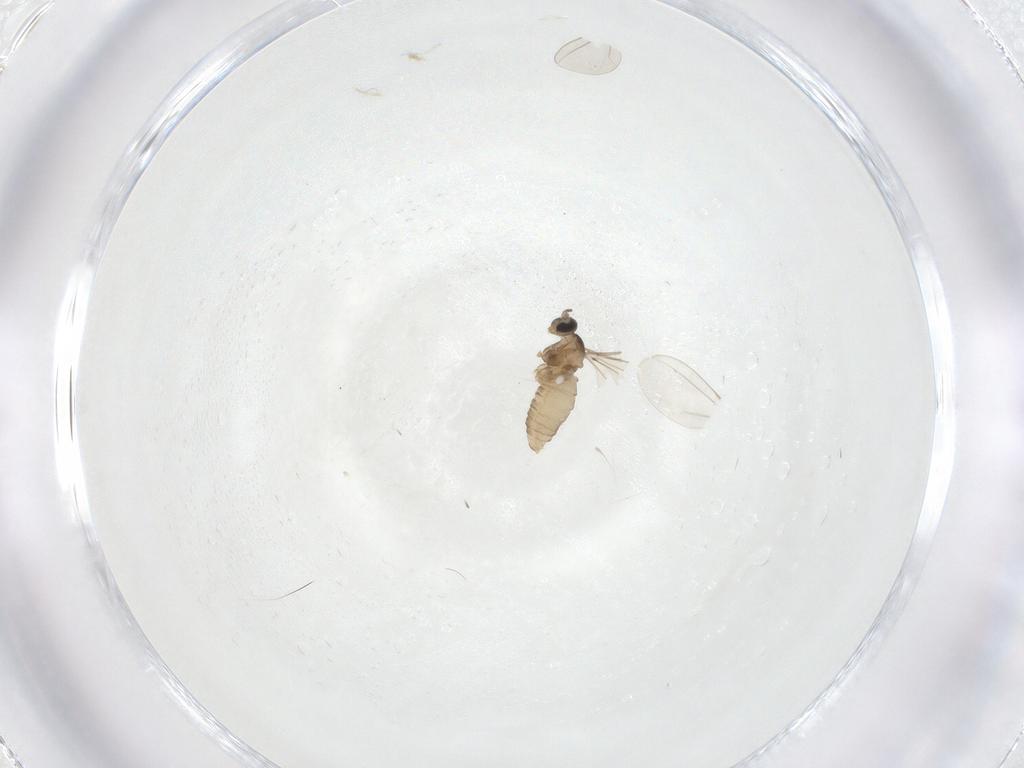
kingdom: Animalia
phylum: Arthropoda
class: Insecta
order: Diptera
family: Cecidomyiidae
